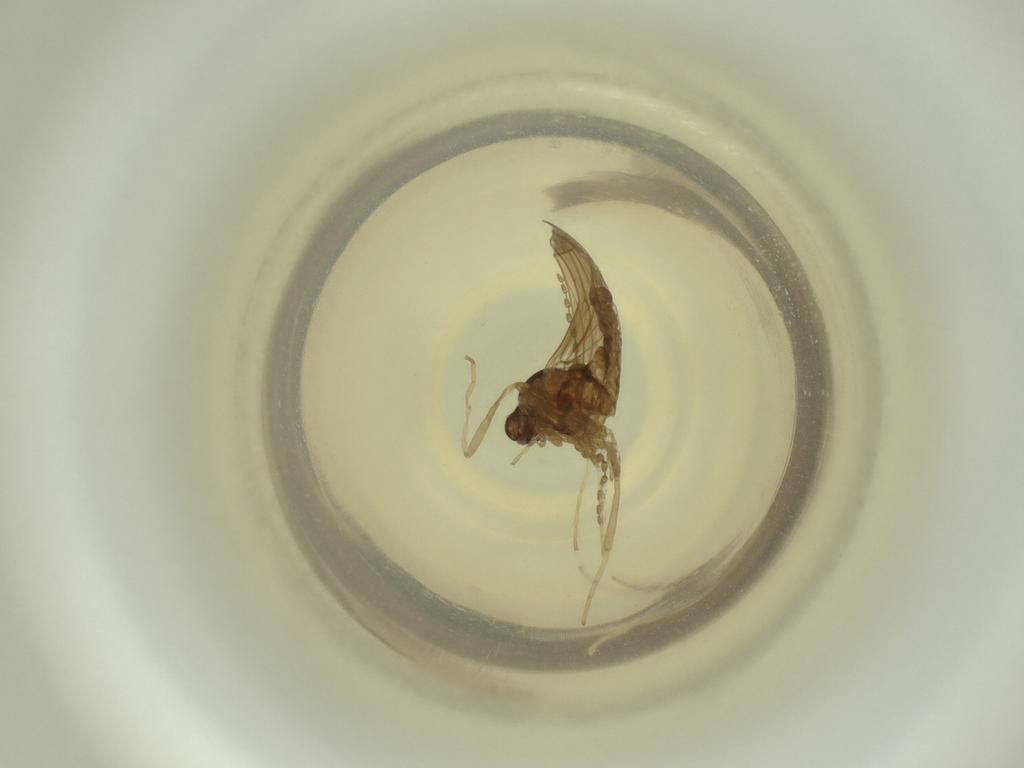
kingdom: Animalia
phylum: Arthropoda
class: Insecta
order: Diptera
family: Cecidomyiidae
